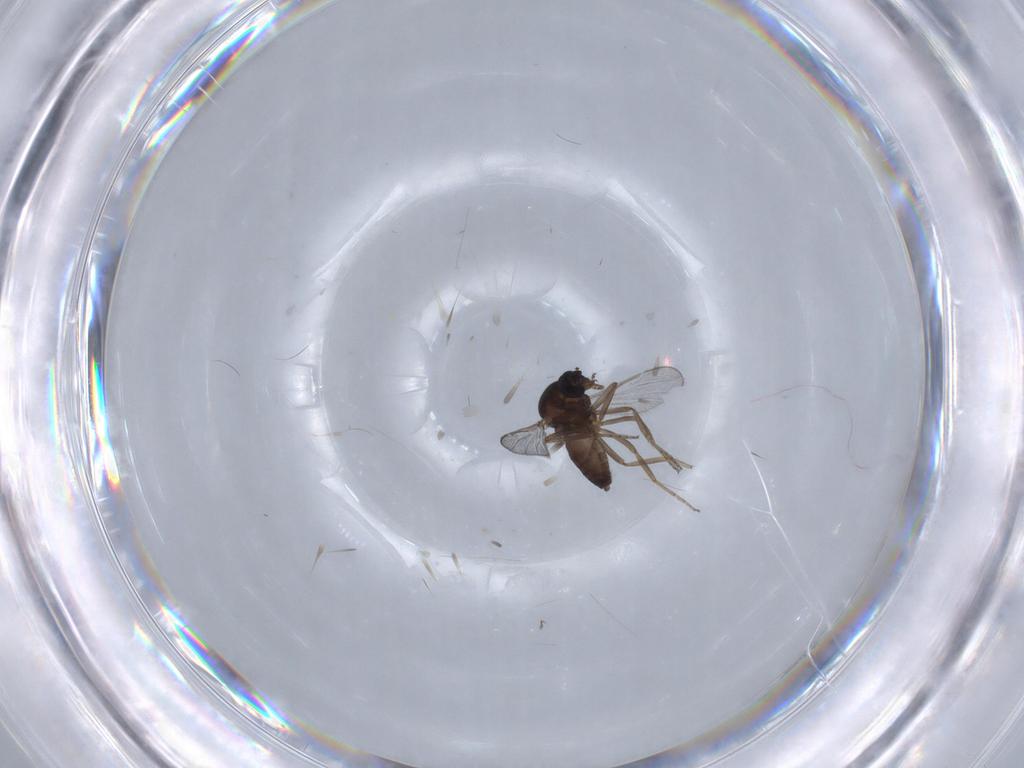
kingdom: Animalia
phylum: Arthropoda
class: Insecta
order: Diptera
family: Ceratopogonidae
